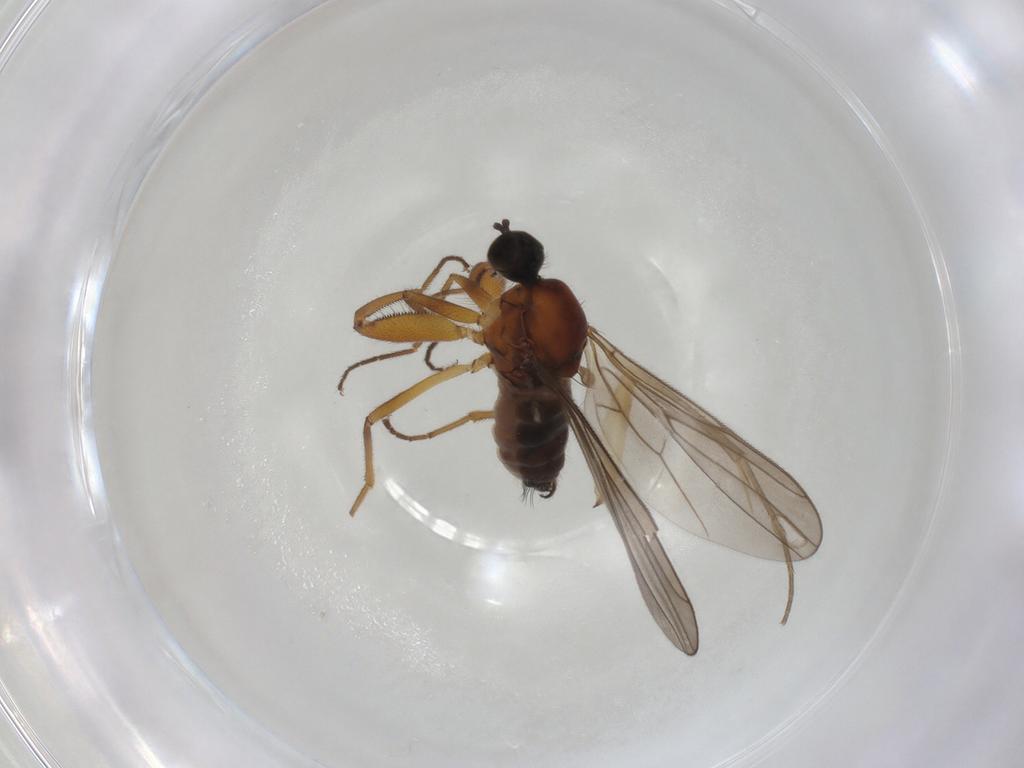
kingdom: Animalia
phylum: Arthropoda
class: Insecta
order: Diptera
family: Hybotidae
